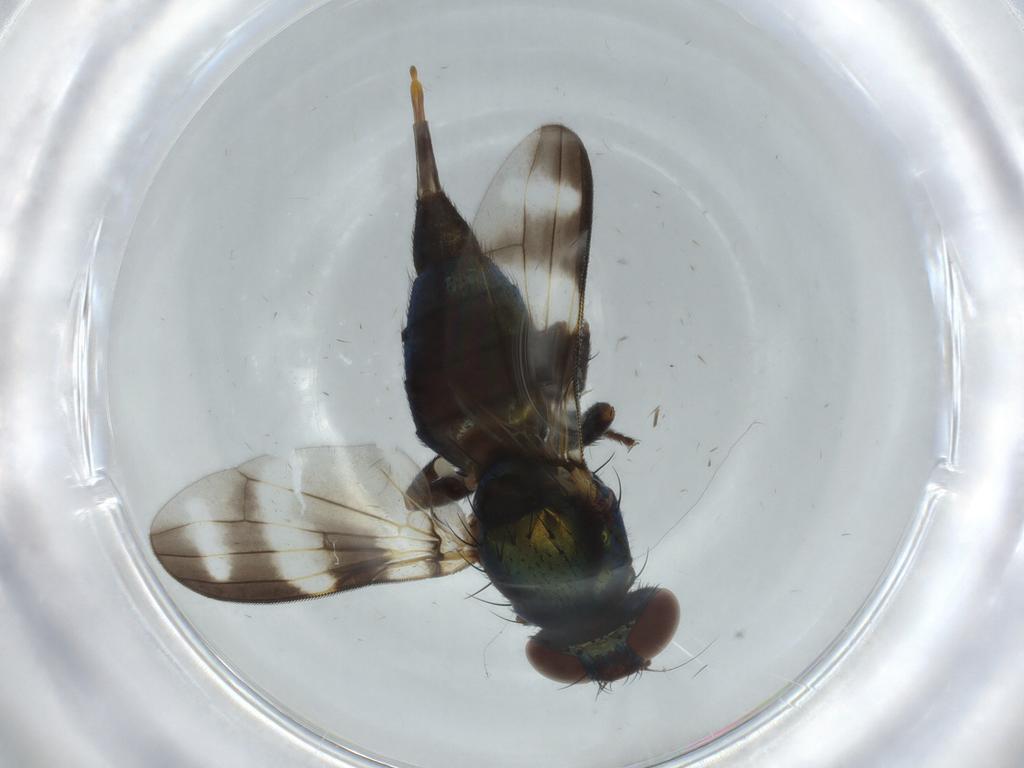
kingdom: Animalia
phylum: Arthropoda
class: Insecta
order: Diptera
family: Ulidiidae
